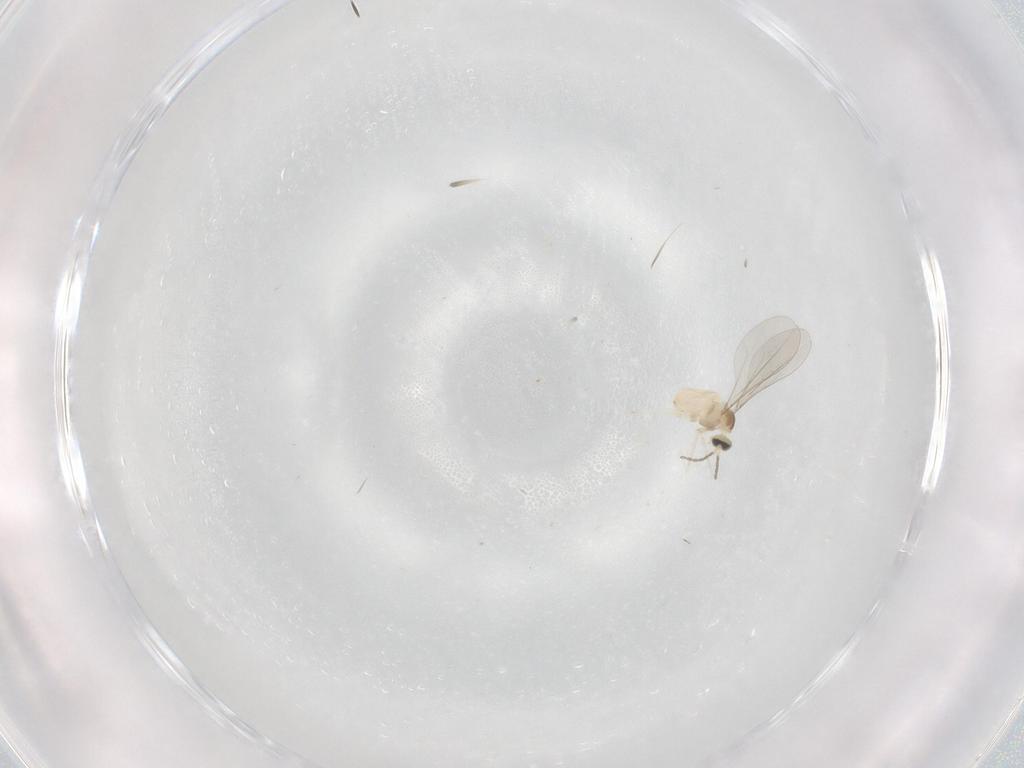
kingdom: Animalia
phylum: Arthropoda
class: Insecta
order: Diptera
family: Cecidomyiidae
